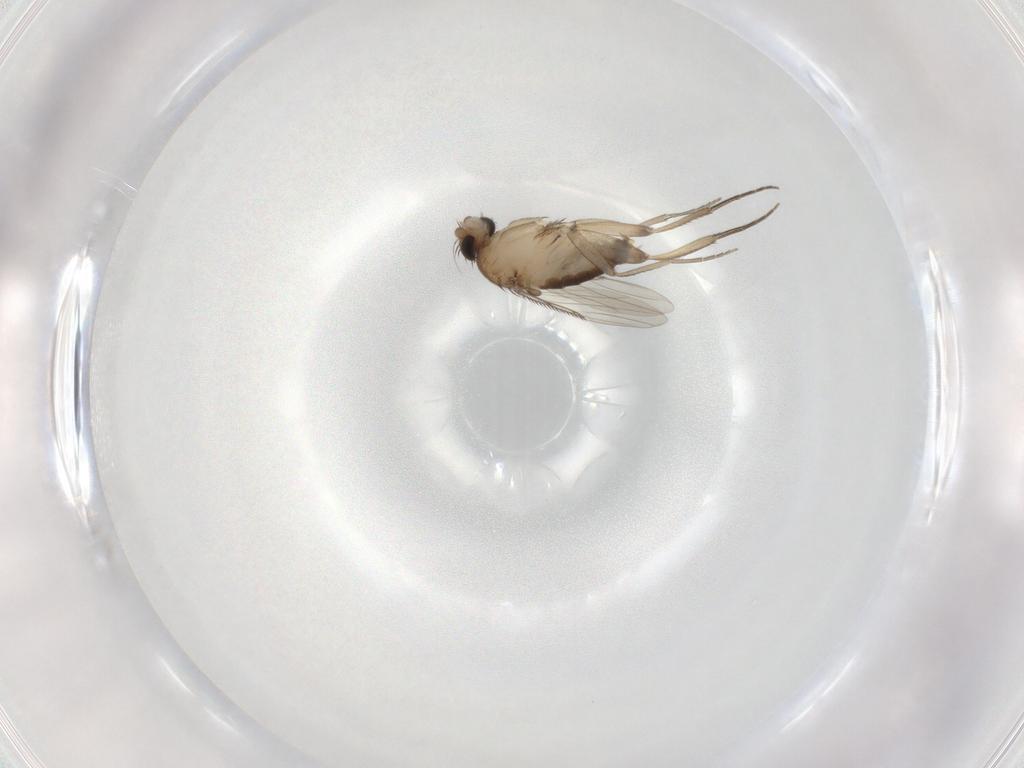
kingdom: Animalia
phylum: Arthropoda
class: Insecta
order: Diptera
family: Phoridae
